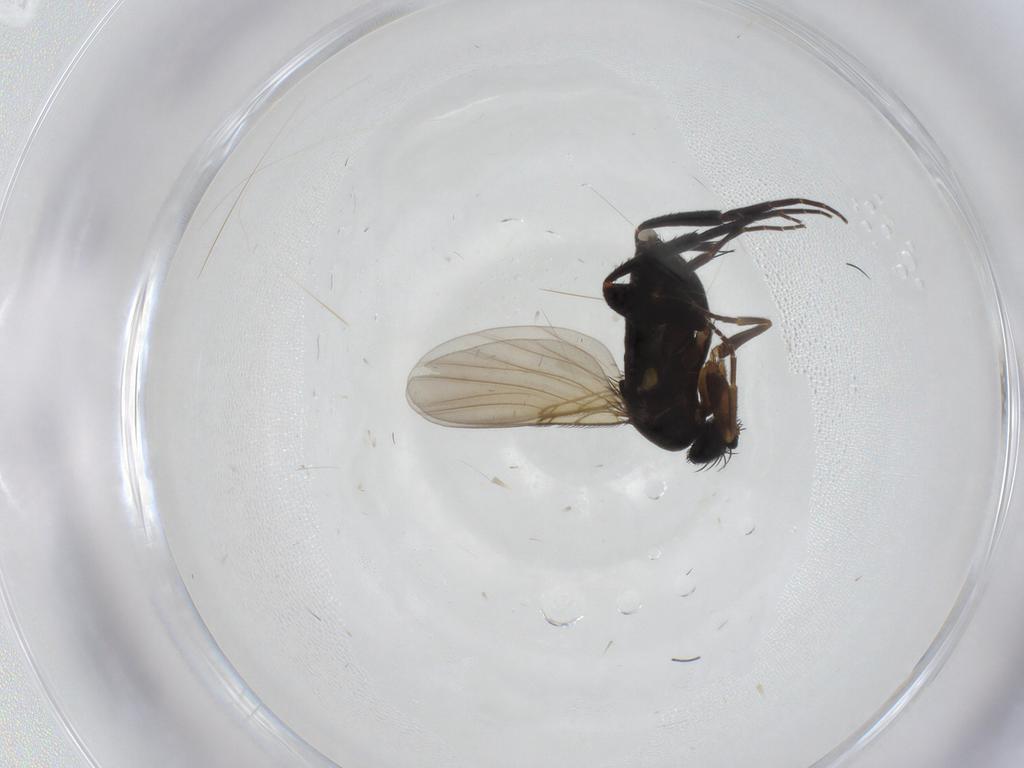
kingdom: Animalia
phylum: Arthropoda
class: Insecta
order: Diptera
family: Phoridae
